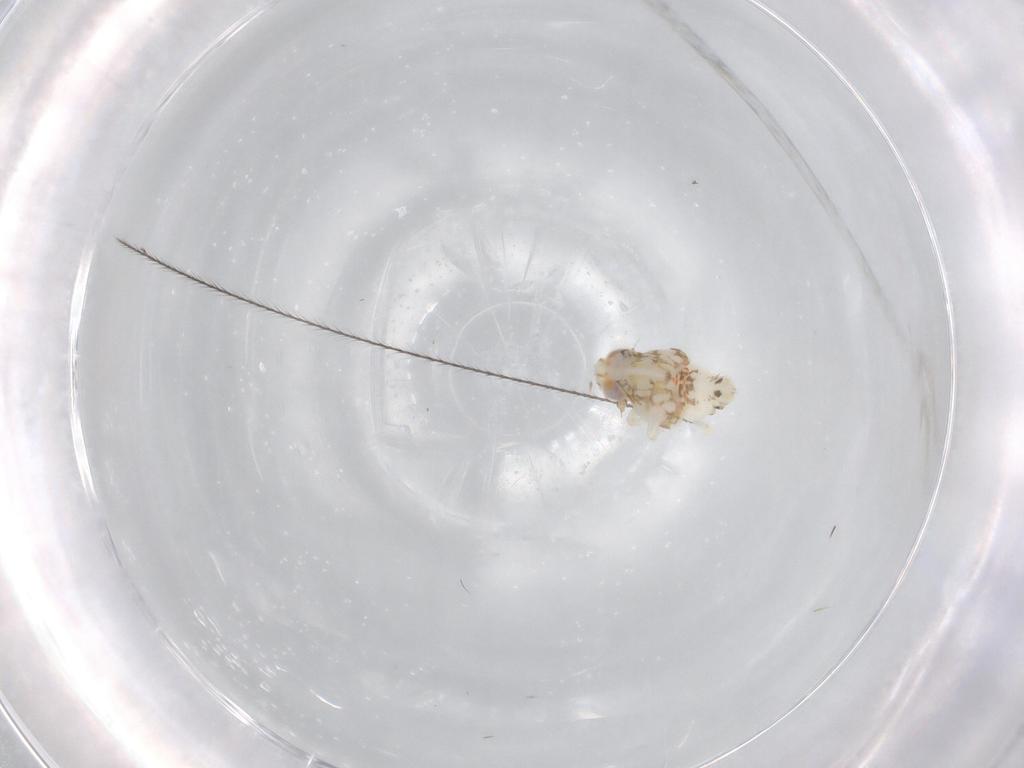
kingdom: Animalia
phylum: Arthropoda
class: Insecta
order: Hemiptera
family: Nogodinidae
